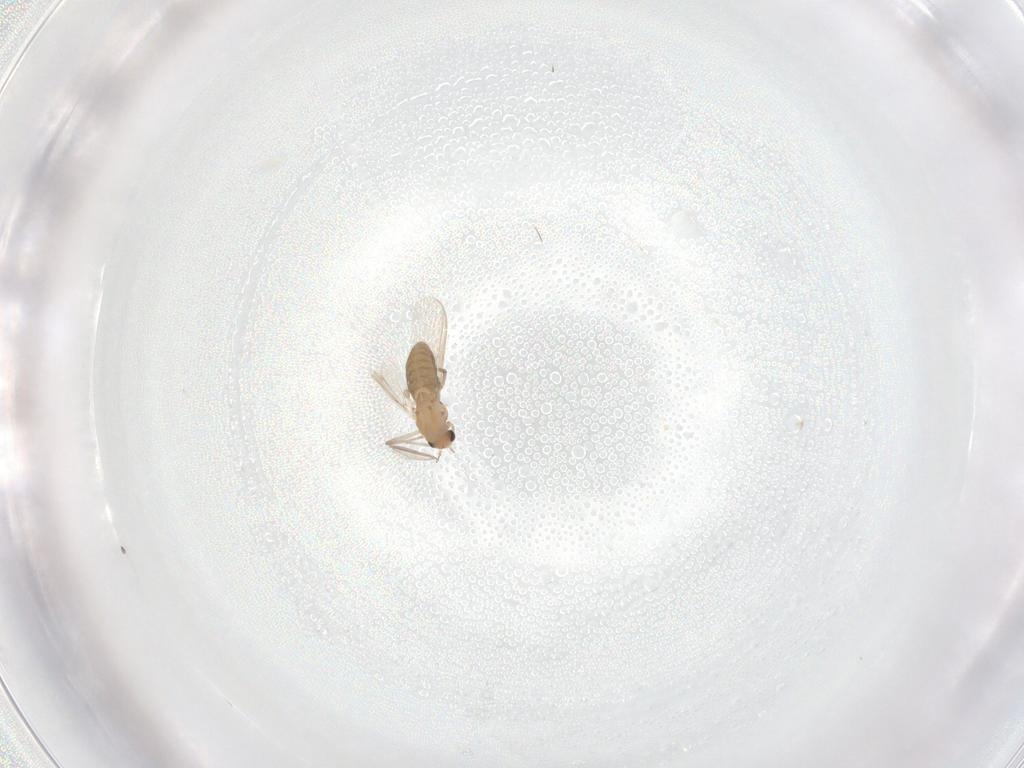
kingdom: Animalia
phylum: Arthropoda
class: Insecta
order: Diptera
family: Chironomidae
